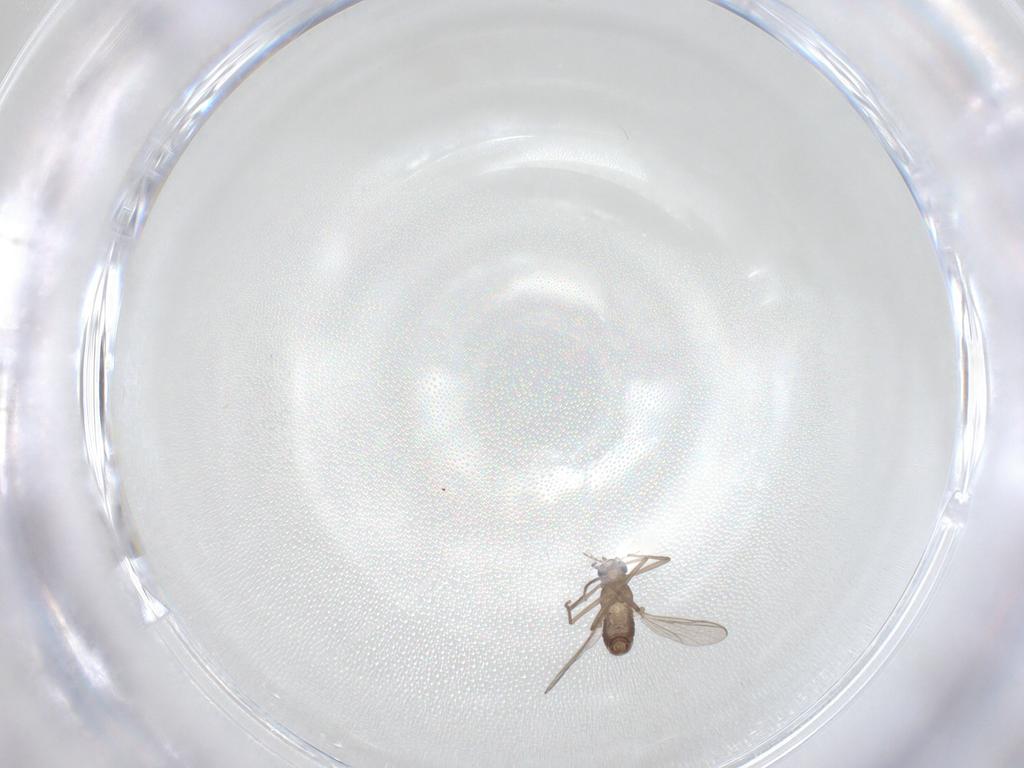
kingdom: Animalia
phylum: Arthropoda
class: Insecta
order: Diptera
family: Chironomidae
